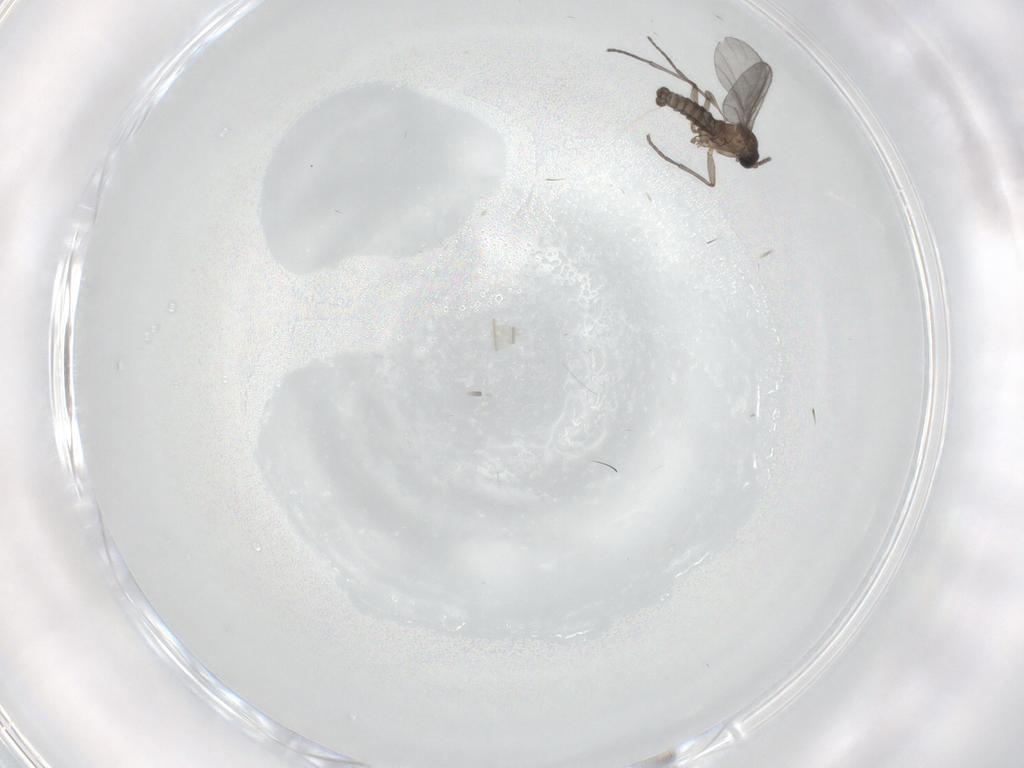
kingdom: Animalia
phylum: Arthropoda
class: Insecta
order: Diptera
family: Sciaridae
